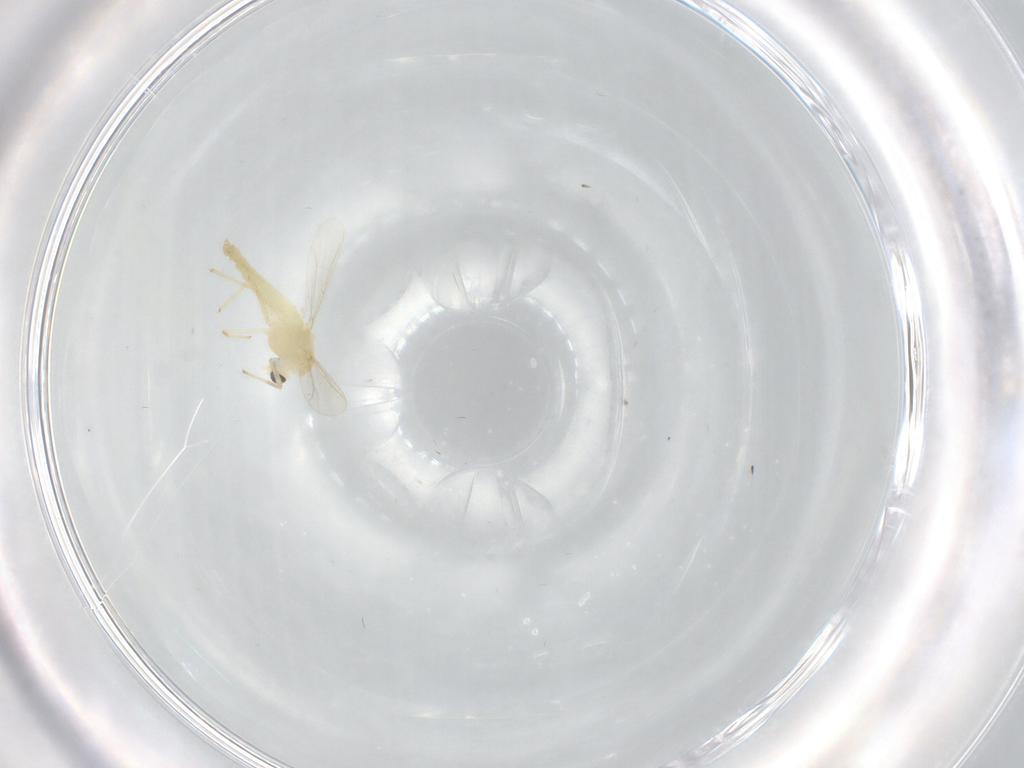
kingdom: Animalia
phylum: Arthropoda
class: Insecta
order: Diptera
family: Chironomidae
